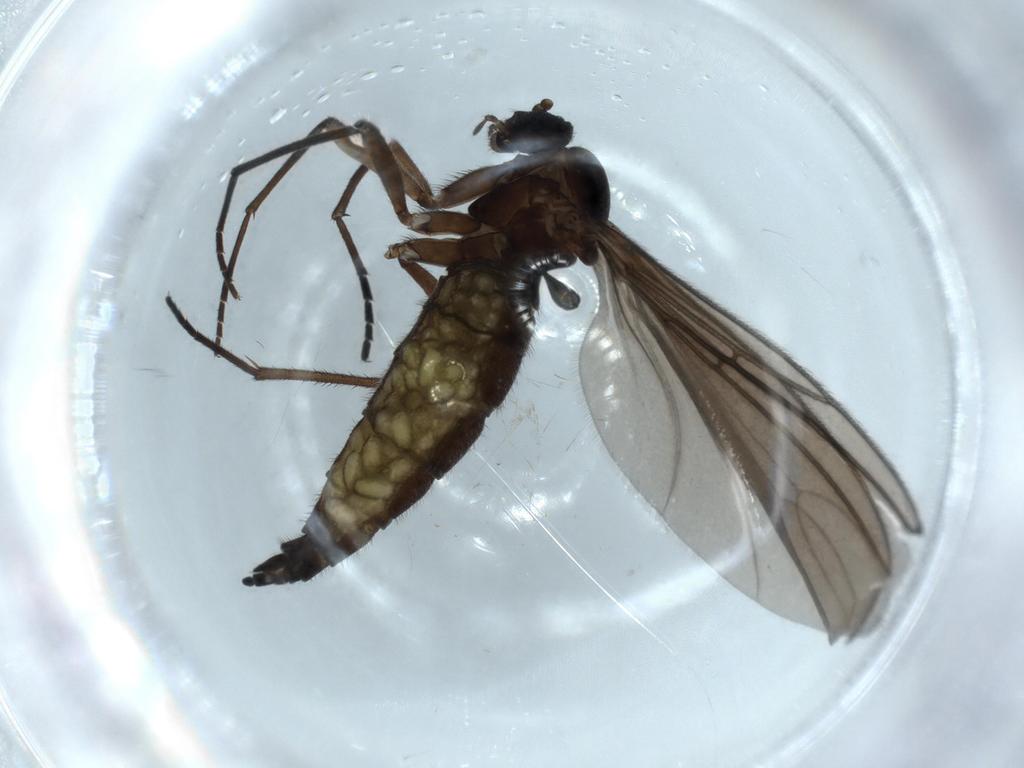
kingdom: Animalia
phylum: Arthropoda
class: Insecta
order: Diptera
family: Sciaridae
